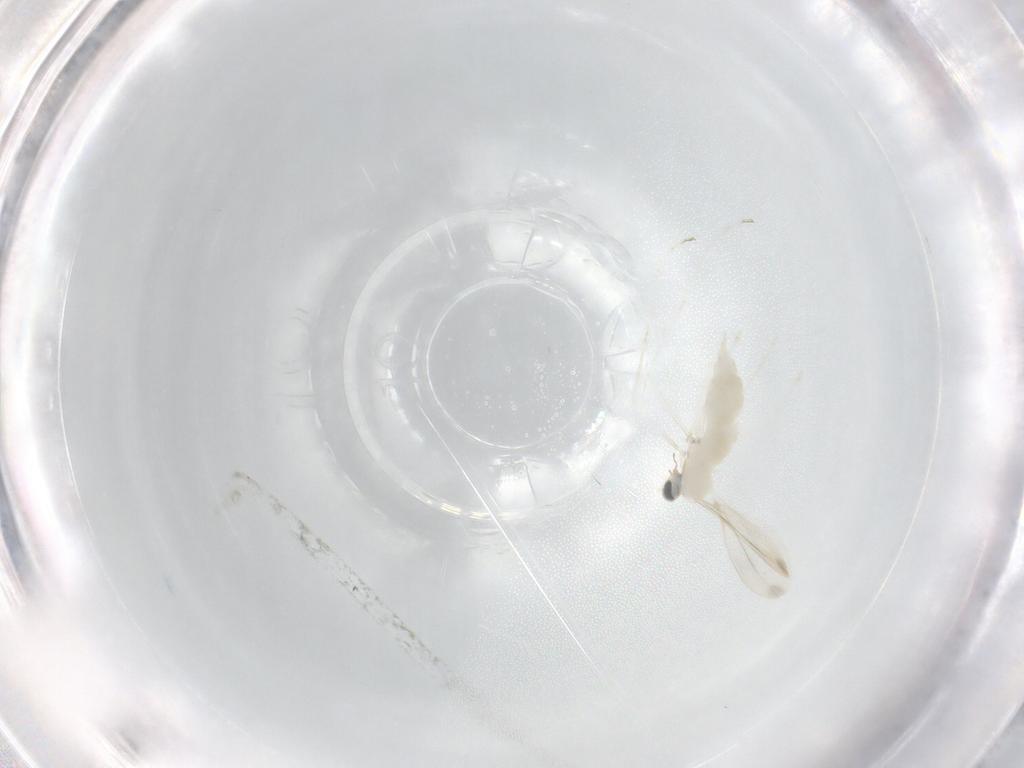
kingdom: Animalia
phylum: Arthropoda
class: Insecta
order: Diptera
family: Cecidomyiidae
